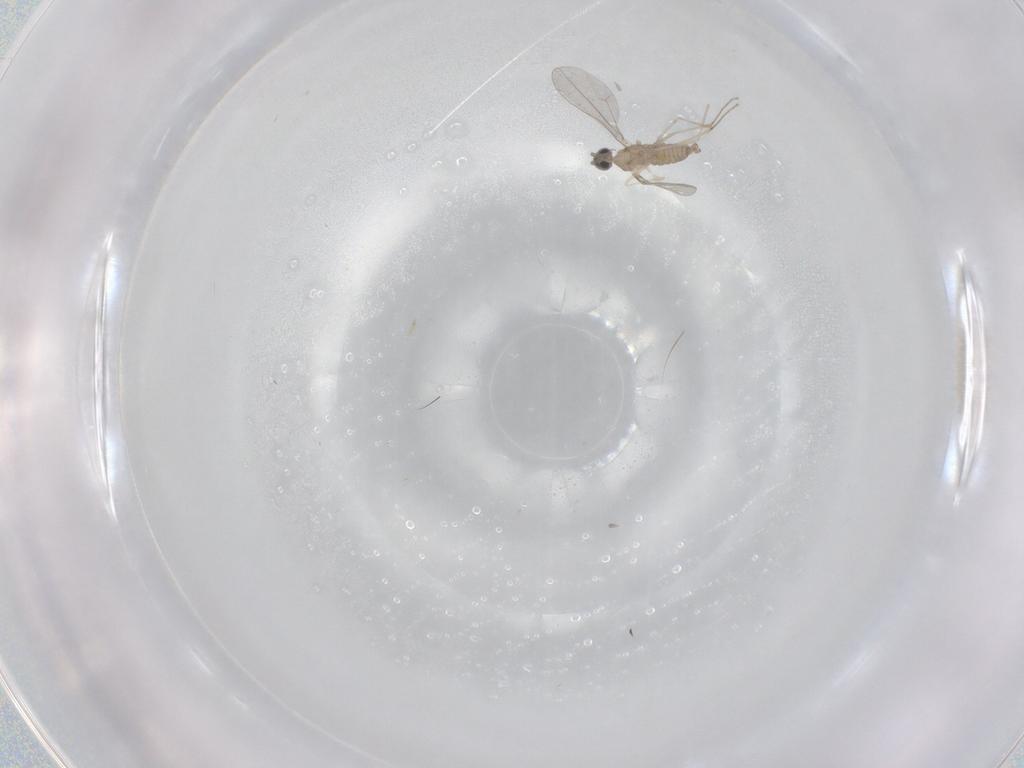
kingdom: Animalia
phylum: Arthropoda
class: Insecta
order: Diptera
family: Cecidomyiidae
